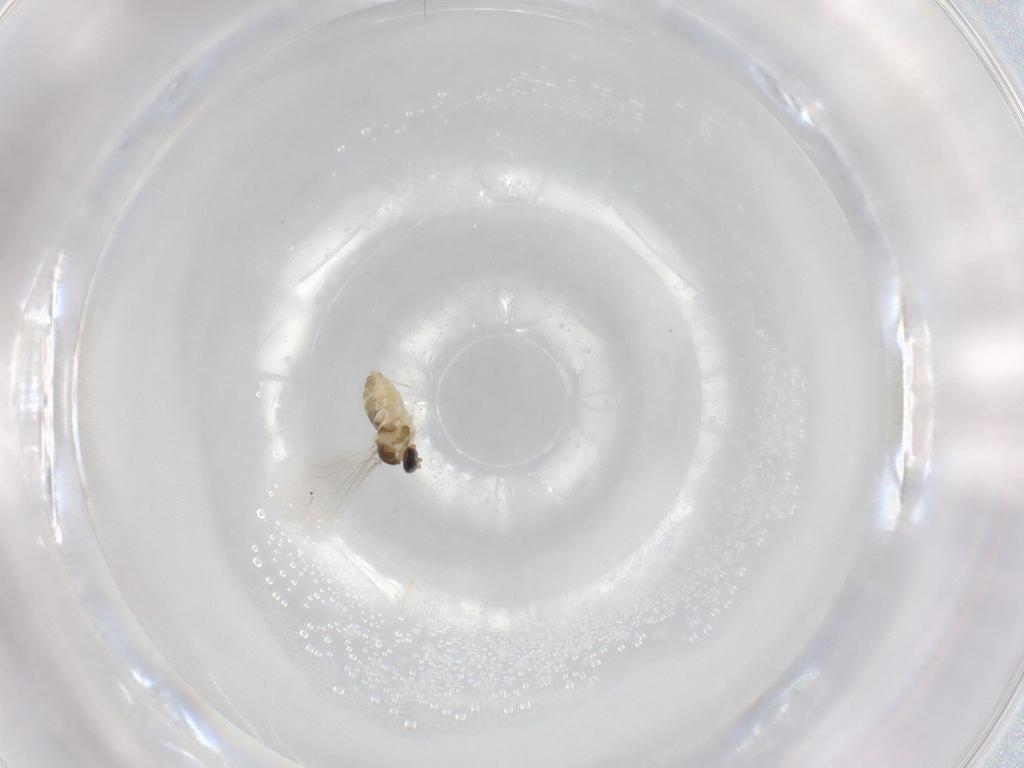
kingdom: Animalia
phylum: Arthropoda
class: Insecta
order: Diptera
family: Cecidomyiidae
